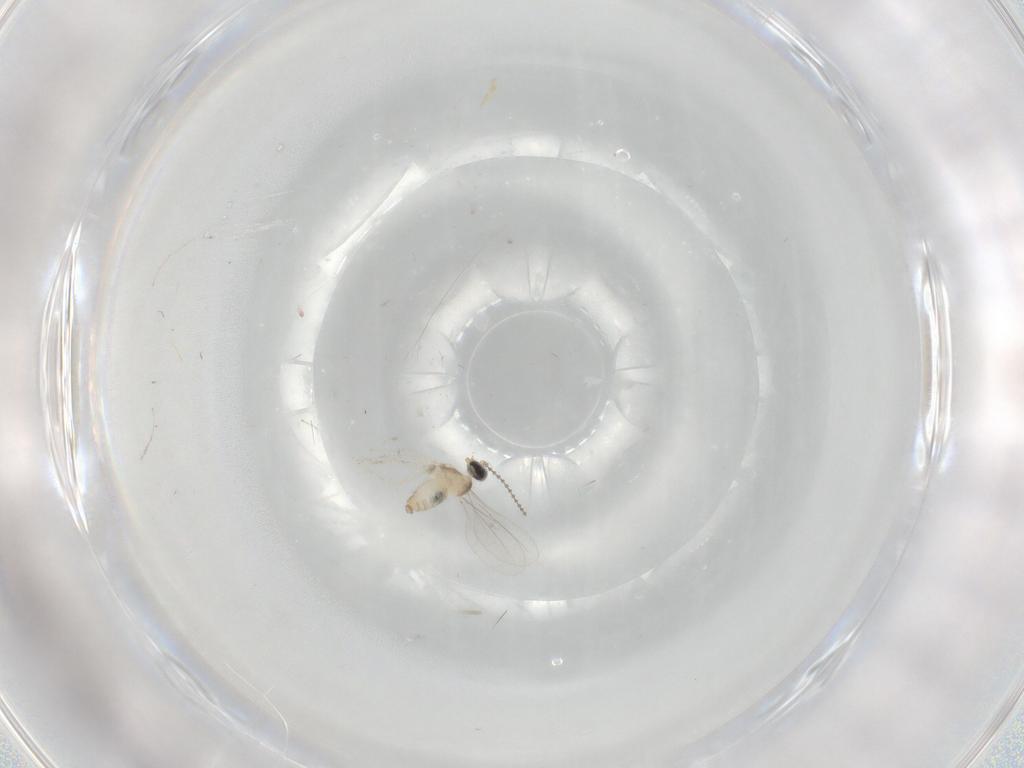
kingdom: Animalia
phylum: Arthropoda
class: Insecta
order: Diptera
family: Cecidomyiidae
